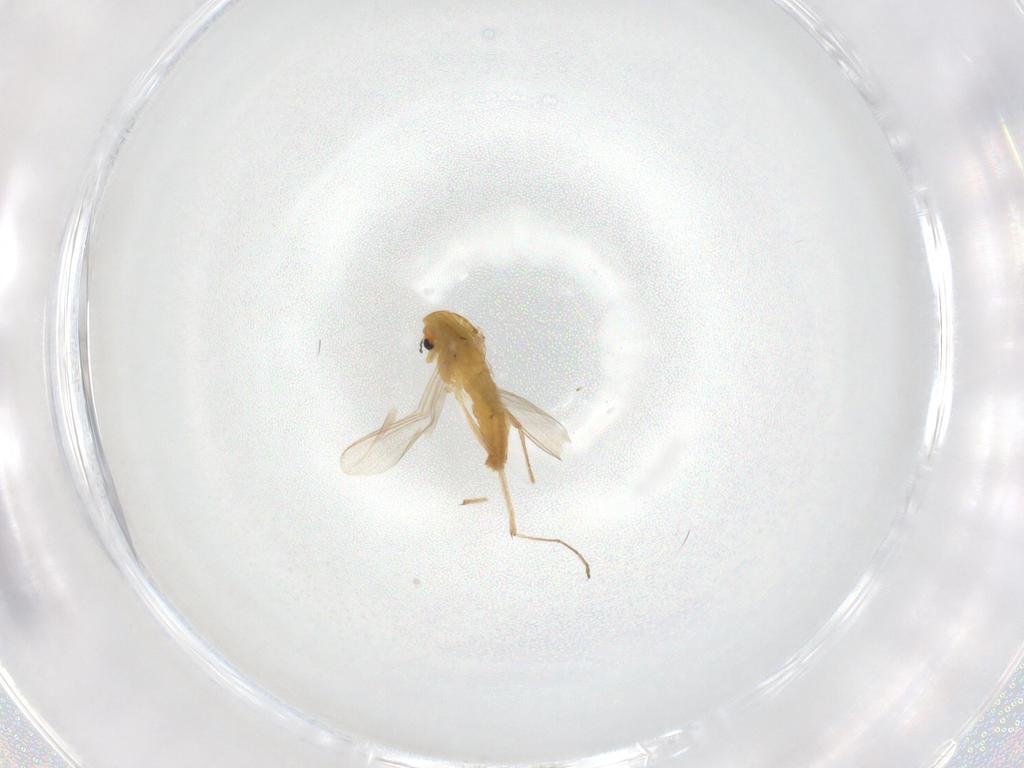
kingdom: Animalia
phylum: Arthropoda
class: Insecta
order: Diptera
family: Chironomidae
